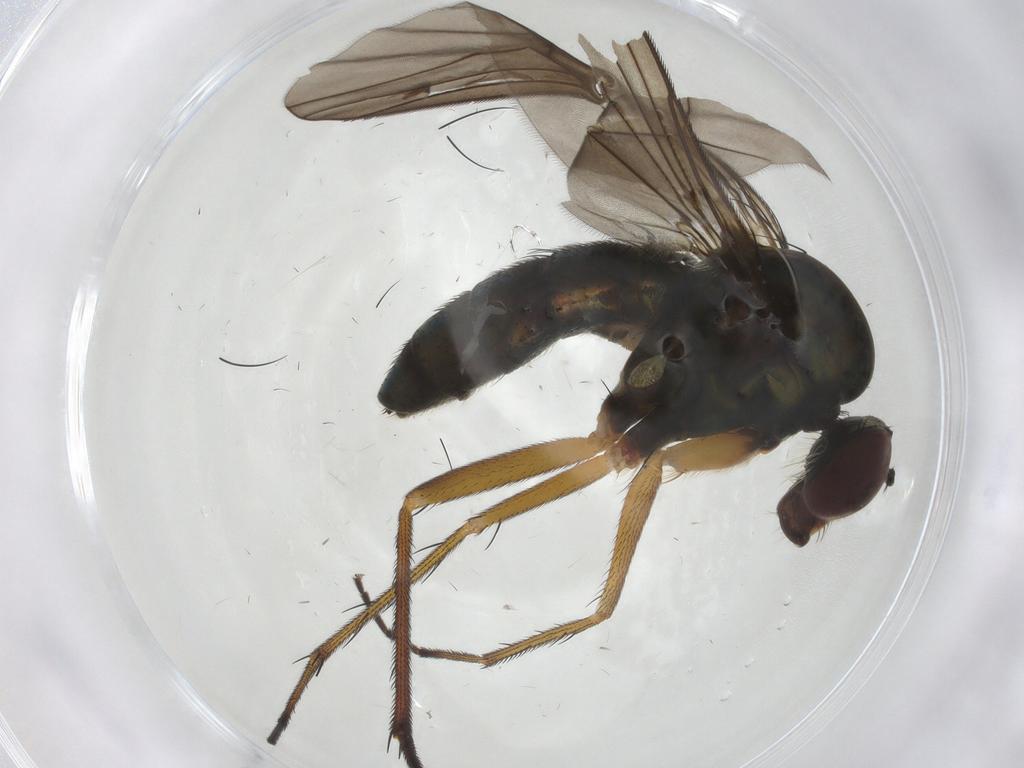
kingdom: Animalia
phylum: Arthropoda
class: Insecta
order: Diptera
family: Dolichopodidae
